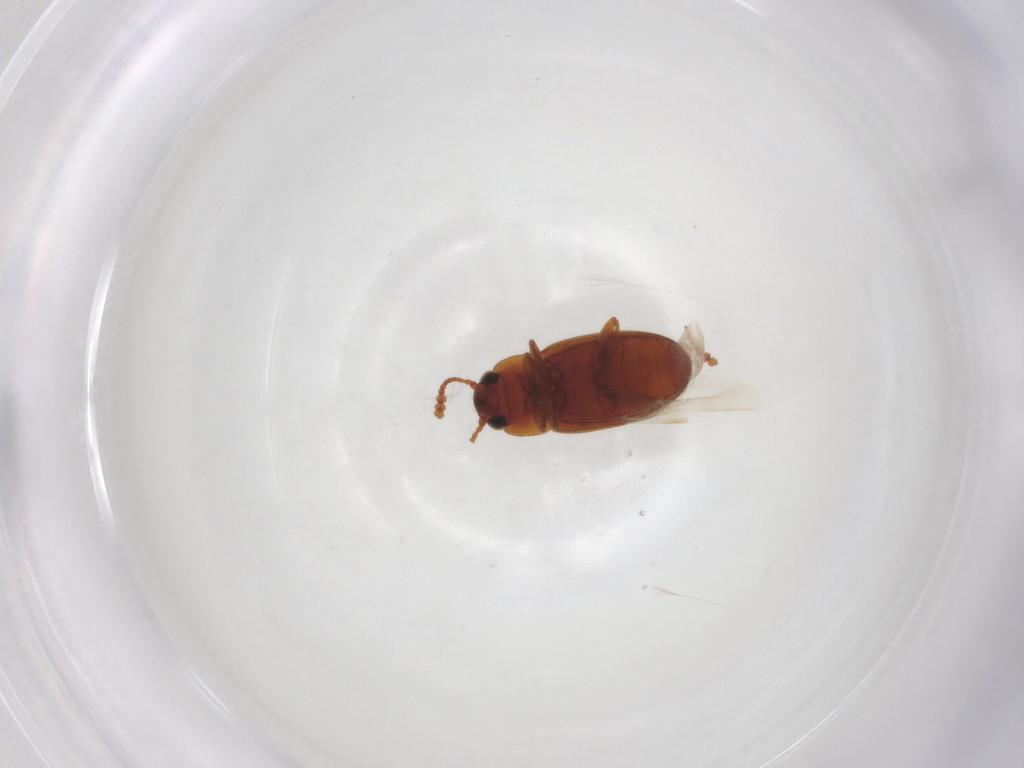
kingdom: Animalia
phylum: Arthropoda
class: Insecta
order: Coleoptera
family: Erotylidae
